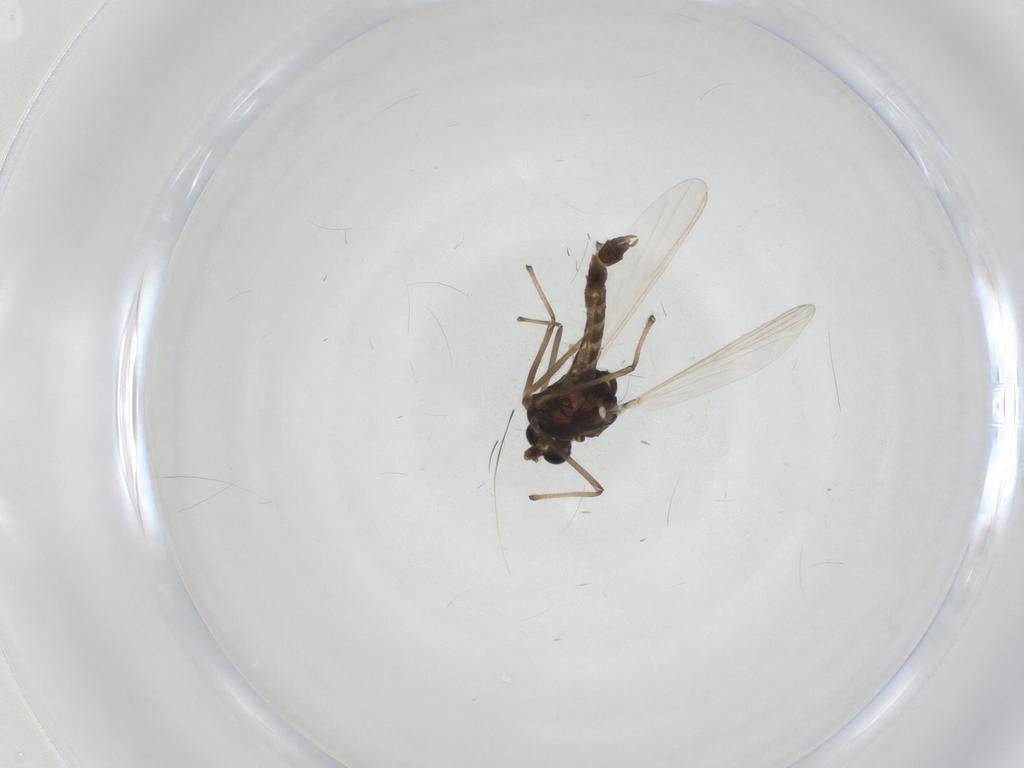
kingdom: Animalia
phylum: Arthropoda
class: Insecta
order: Diptera
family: Chironomidae
